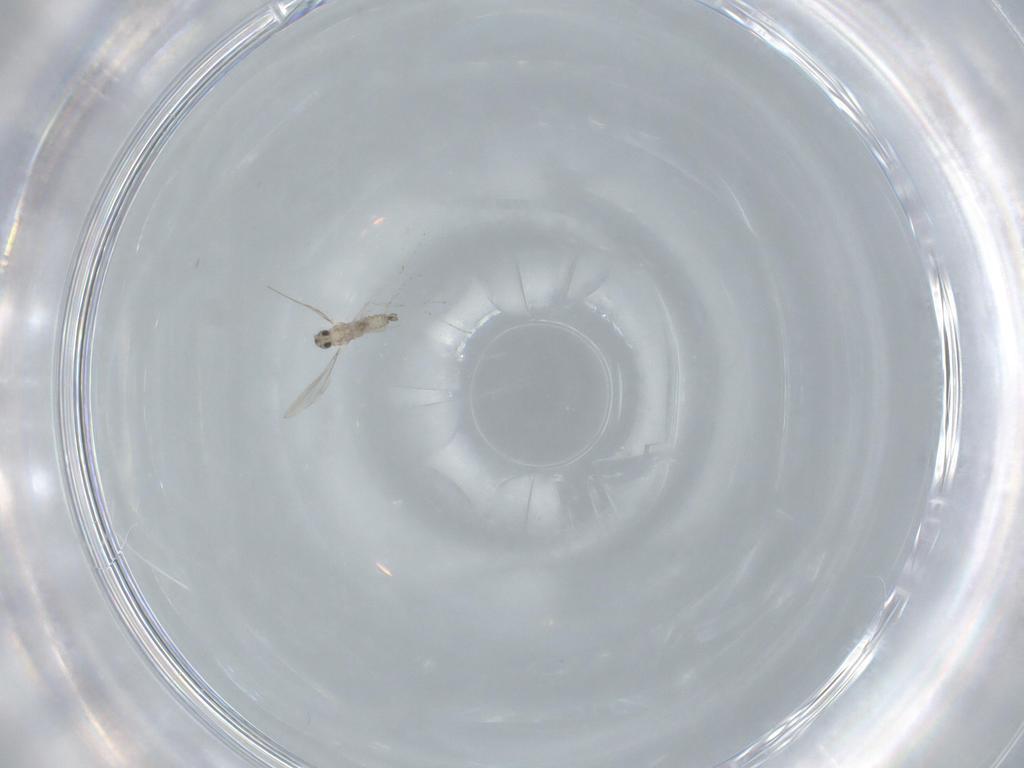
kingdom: Animalia
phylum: Arthropoda
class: Insecta
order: Diptera
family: Cecidomyiidae
